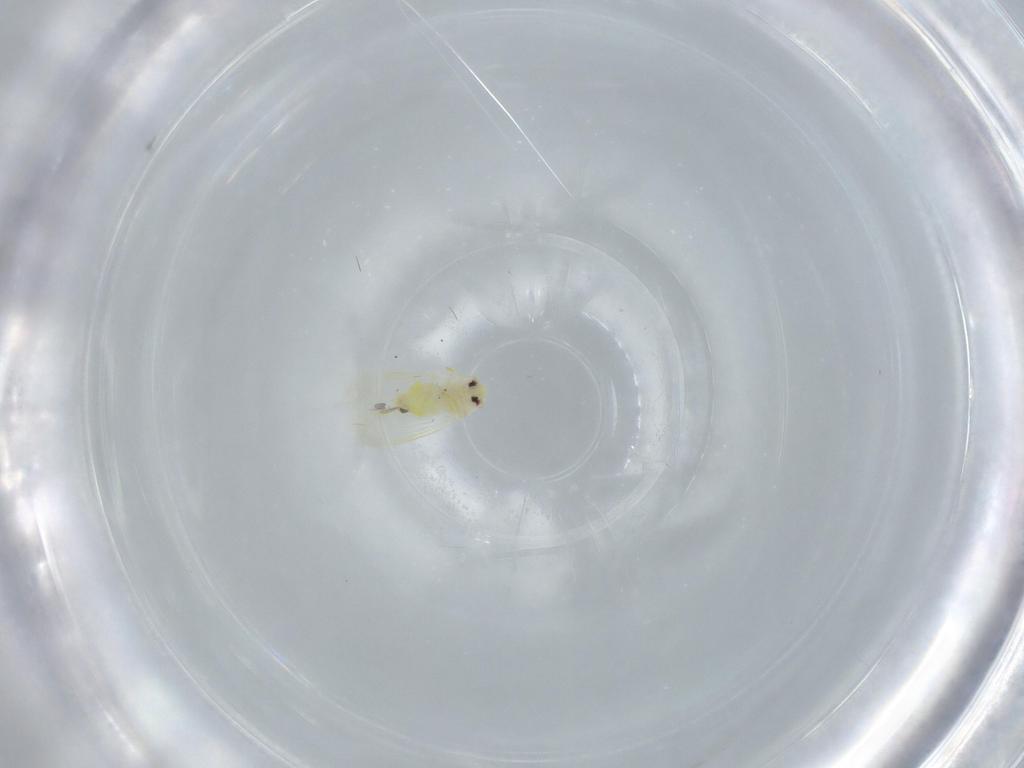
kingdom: Animalia
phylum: Arthropoda
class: Insecta
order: Hemiptera
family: Aleyrodidae
